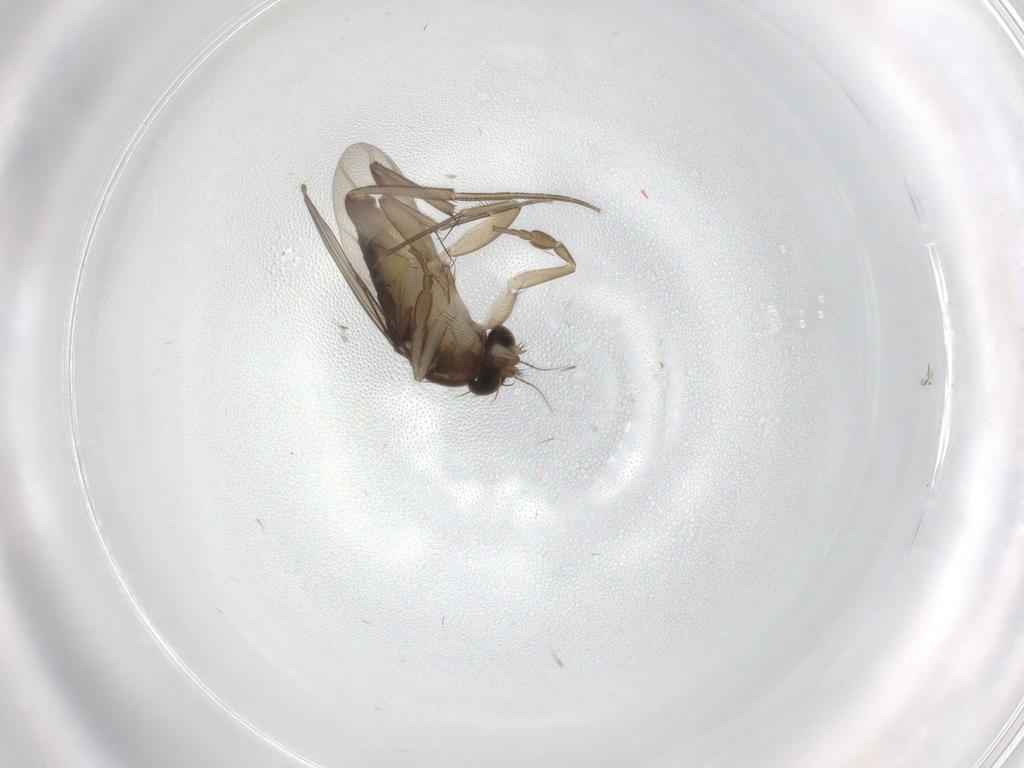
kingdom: Animalia
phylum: Arthropoda
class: Insecta
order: Diptera
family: Phoridae
